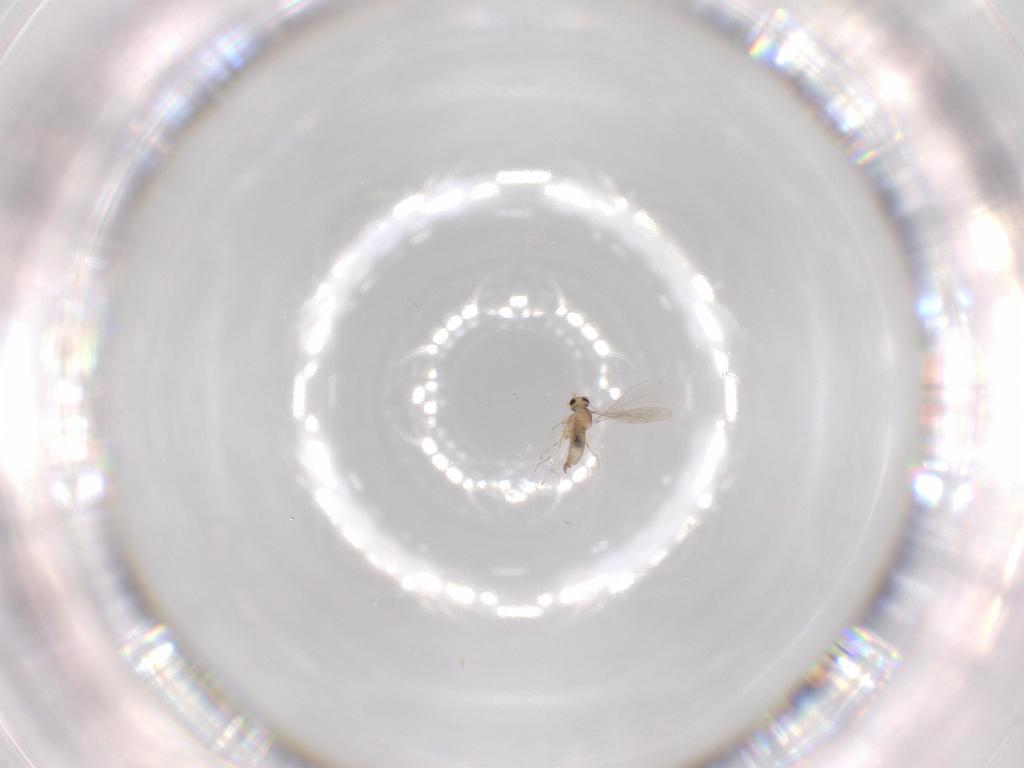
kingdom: Animalia
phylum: Arthropoda
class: Insecta
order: Diptera
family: Cecidomyiidae
